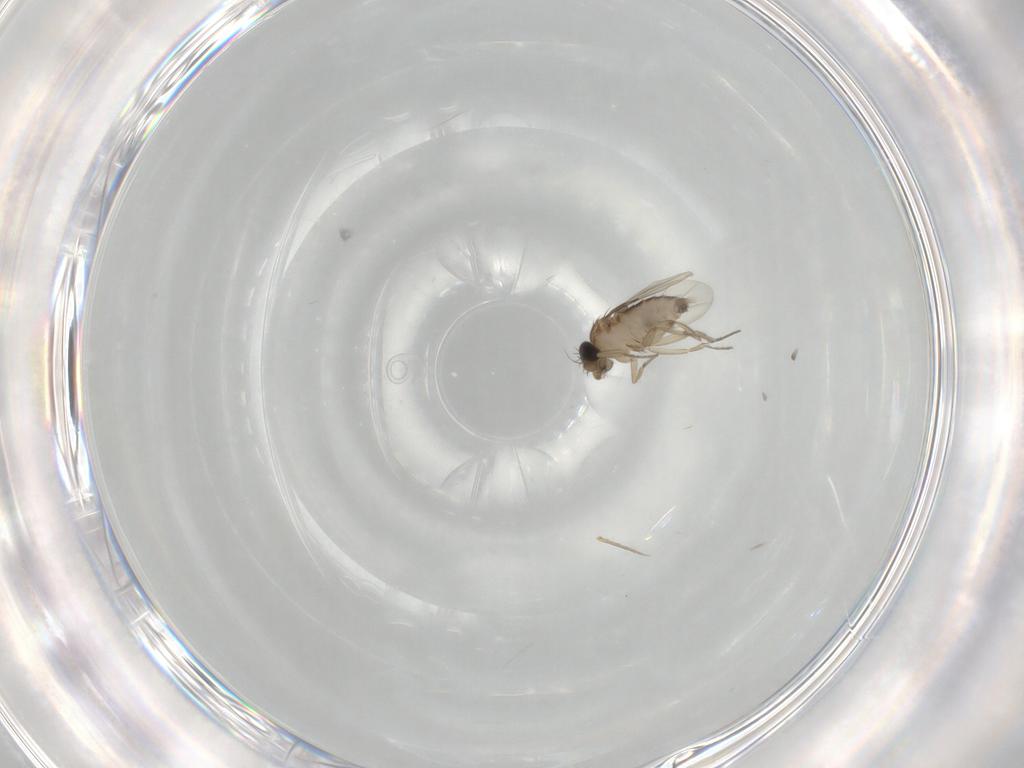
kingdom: Animalia
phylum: Arthropoda
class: Insecta
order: Diptera
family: Phoridae
